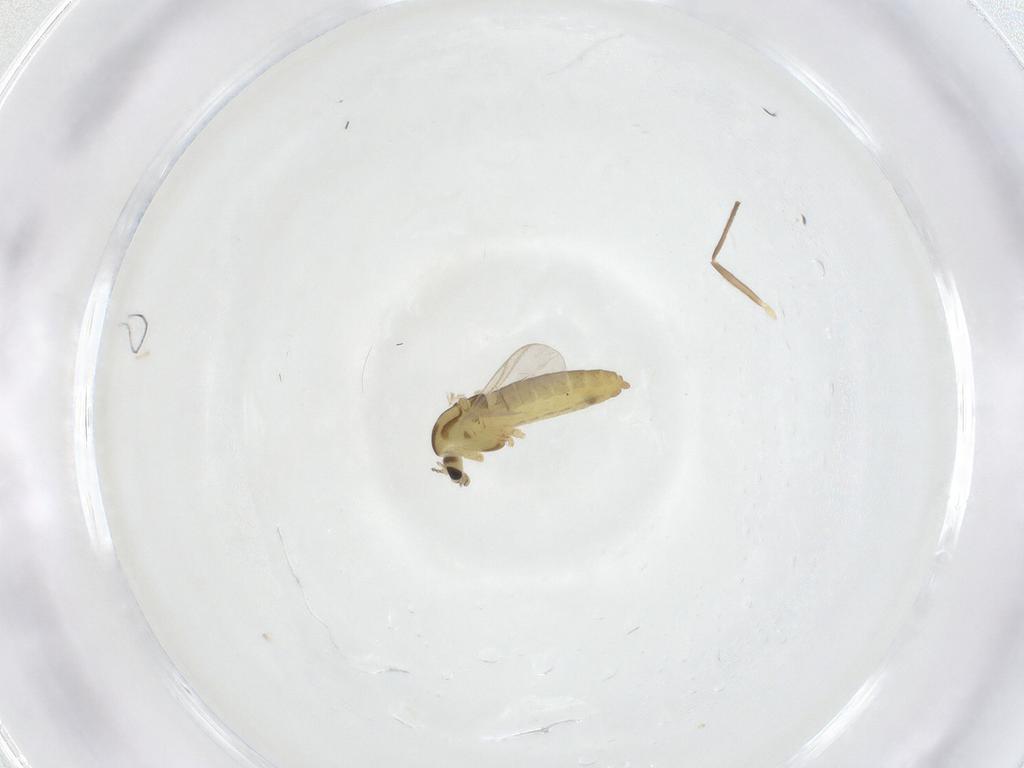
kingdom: Animalia
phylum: Arthropoda
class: Insecta
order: Diptera
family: Chironomidae
